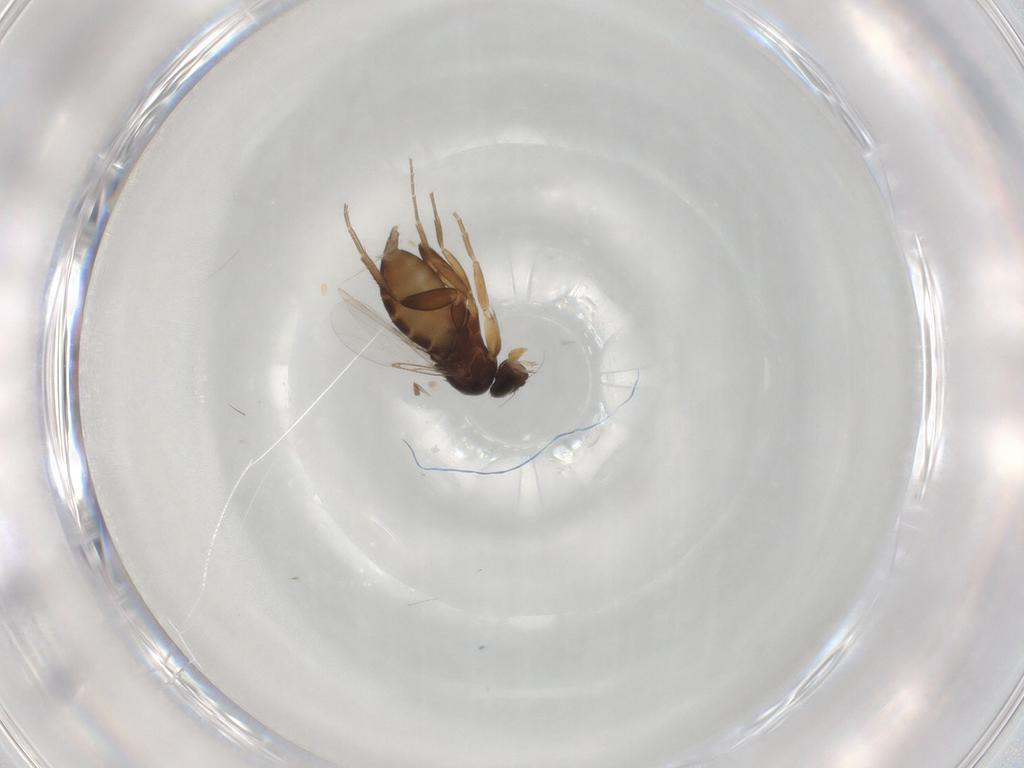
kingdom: Animalia
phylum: Arthropoda
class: Insecta
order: Diptera
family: Phoridae
